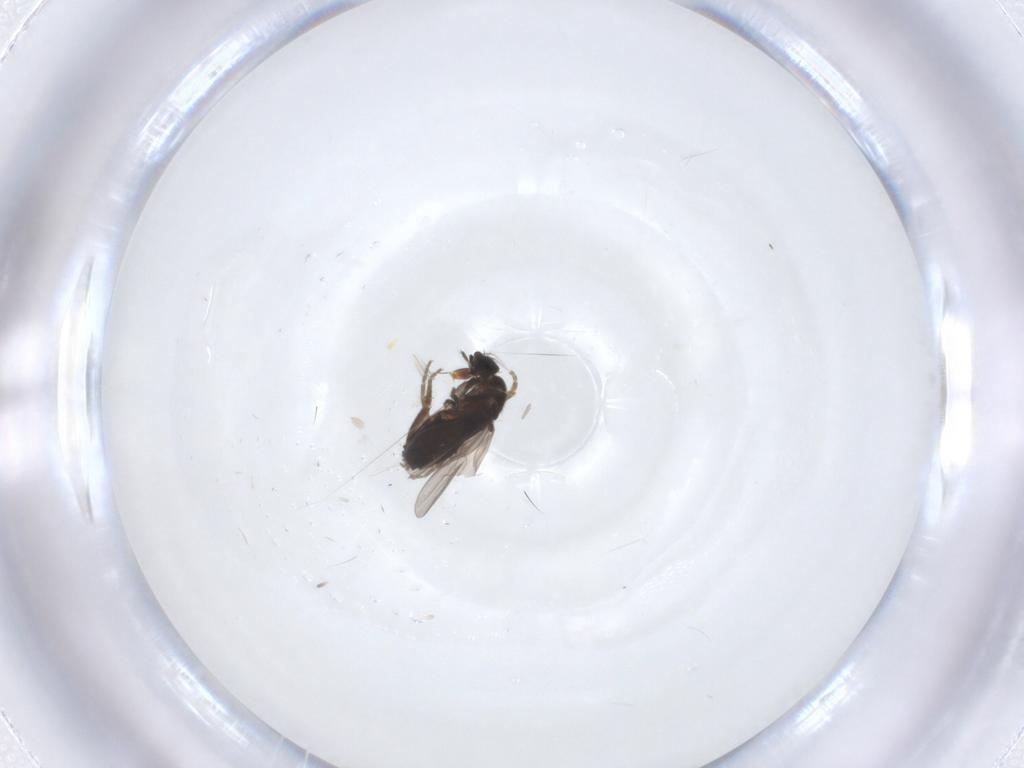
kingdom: Animalia
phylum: Arthropoda
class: Insecta
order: Diptera
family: Phoridae
